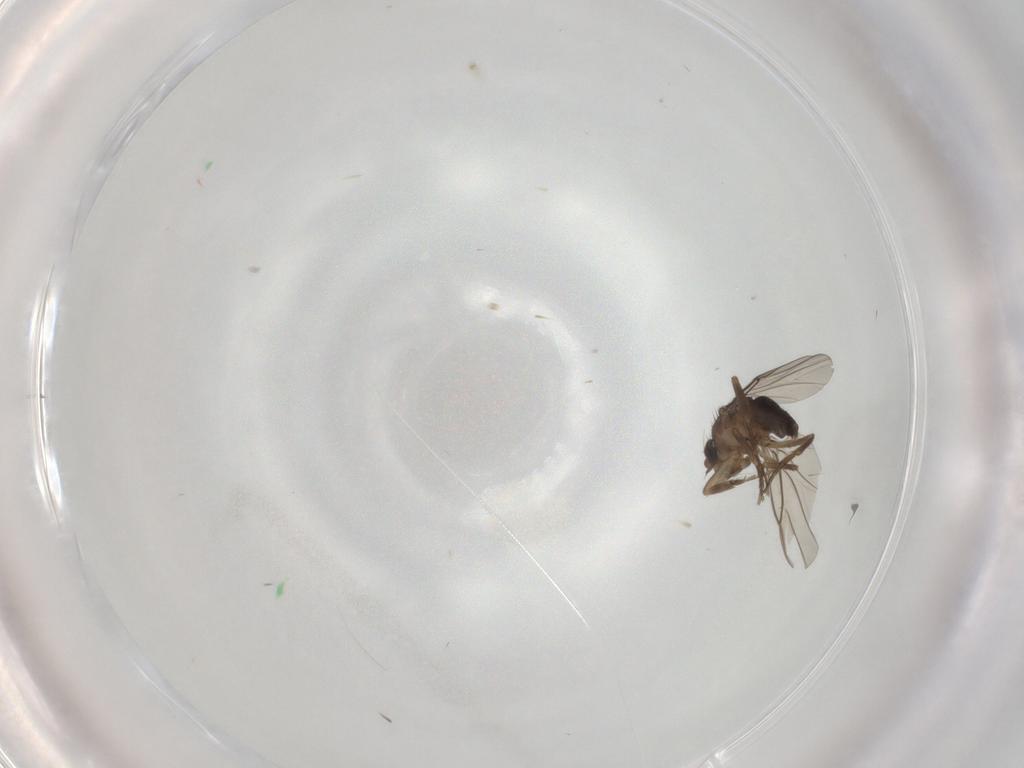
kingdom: Animalia
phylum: Arthropoda
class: Insecta
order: Diptera
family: Phoridae
